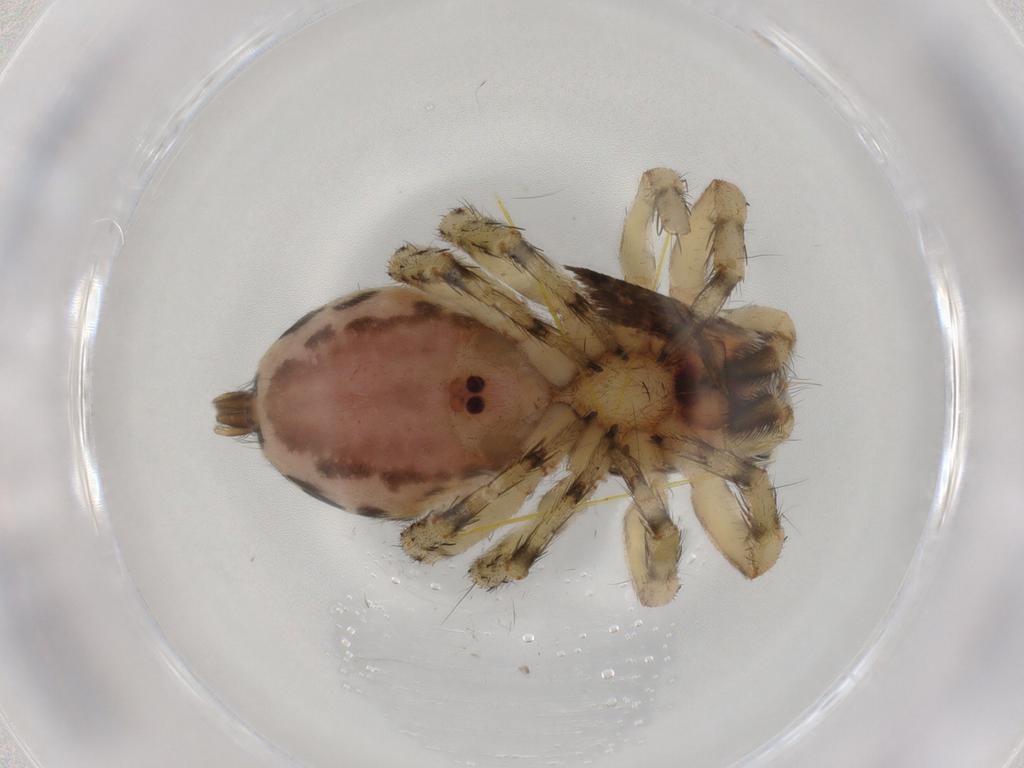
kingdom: Animalia
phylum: Arthropoda
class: Arachnida
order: Araneae
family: Salticidae
